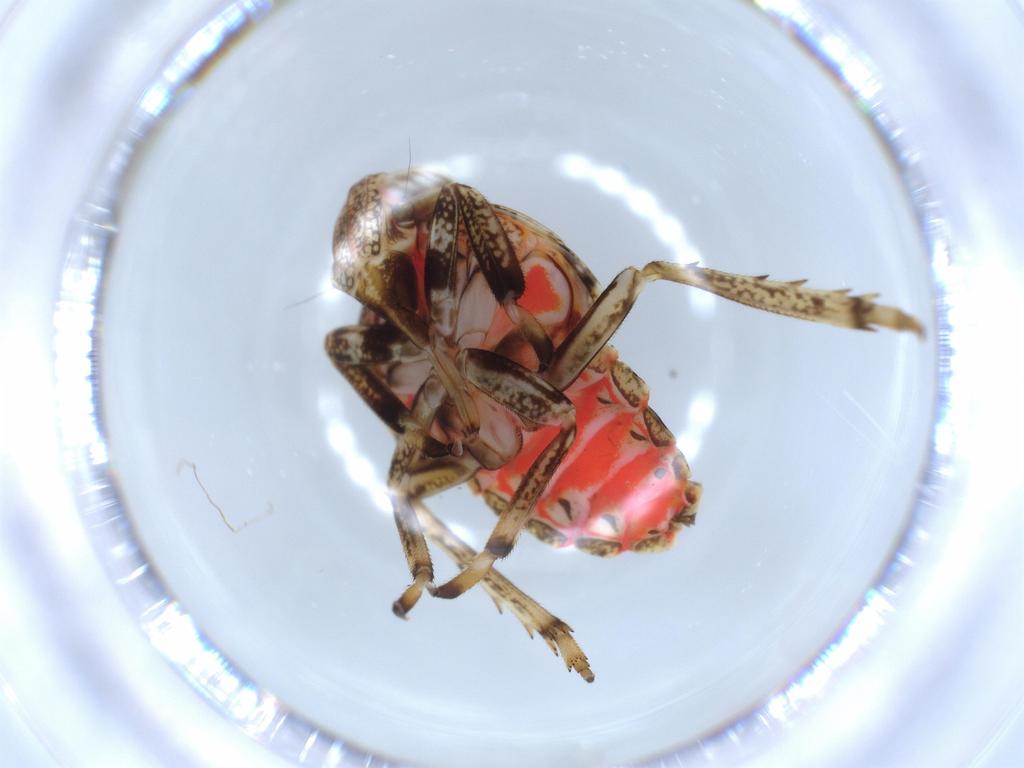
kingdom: Animalia
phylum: Arthropoda
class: Insecta
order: Hemiptera
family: Issidae
